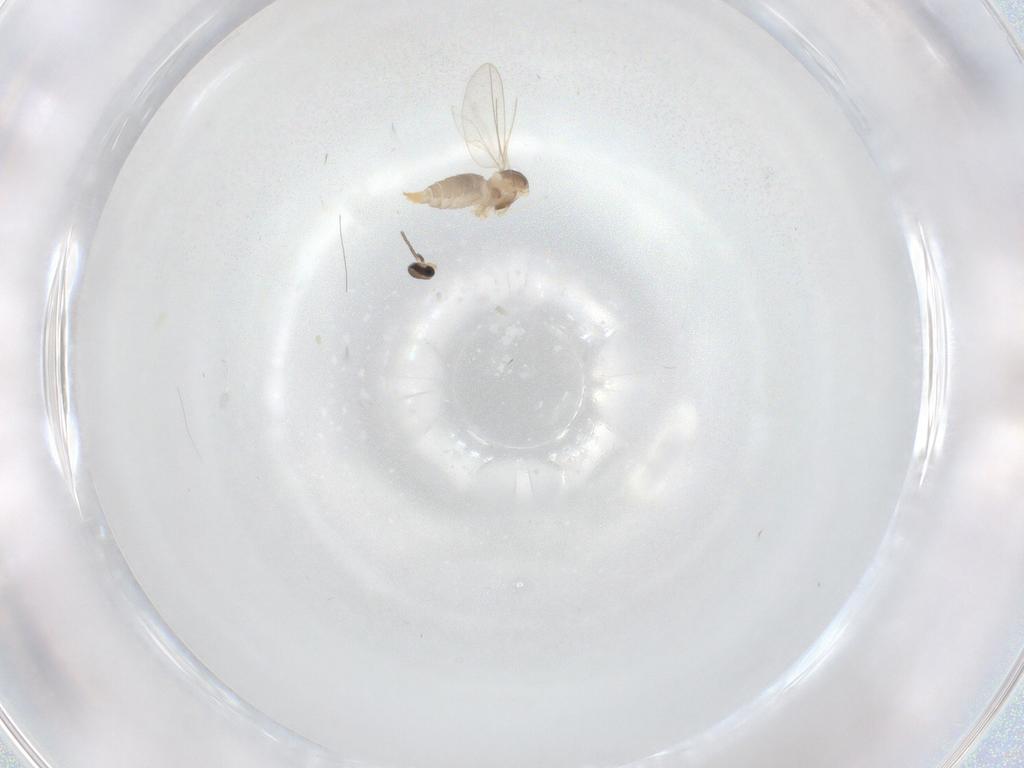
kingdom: Animalia
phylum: Arthropoda
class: Insecta
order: Diptera
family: Cecidomyiidae
